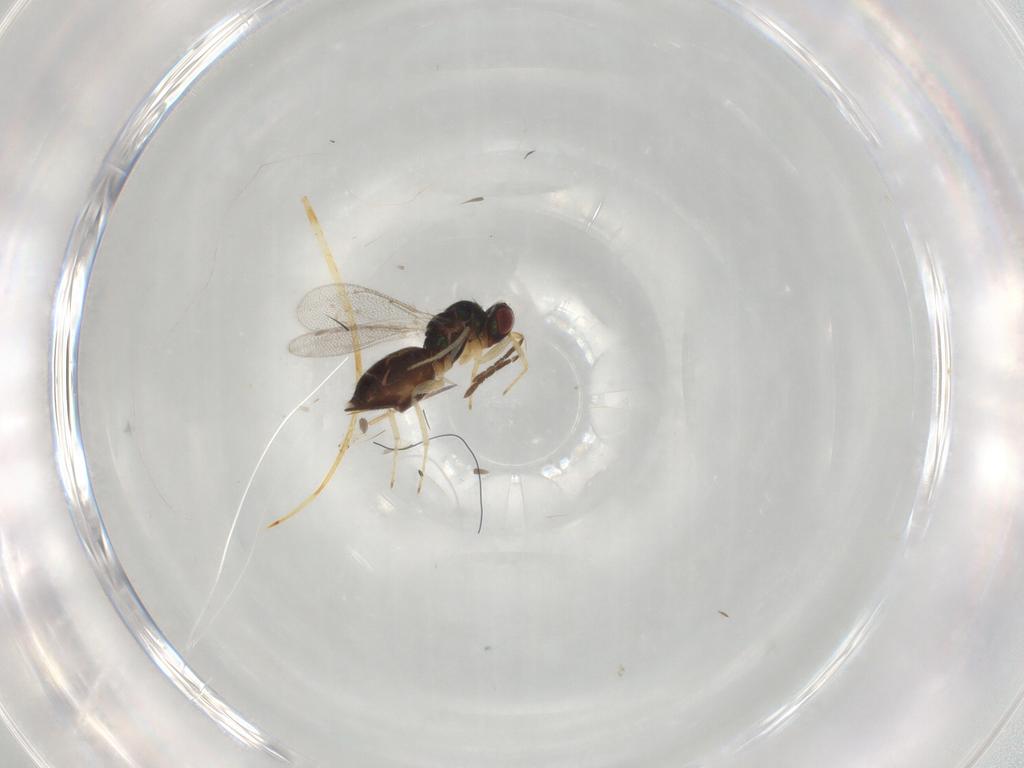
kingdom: Animalia
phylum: Arthropoda
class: Insecta
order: Hymenoptera
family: Eulophidae
